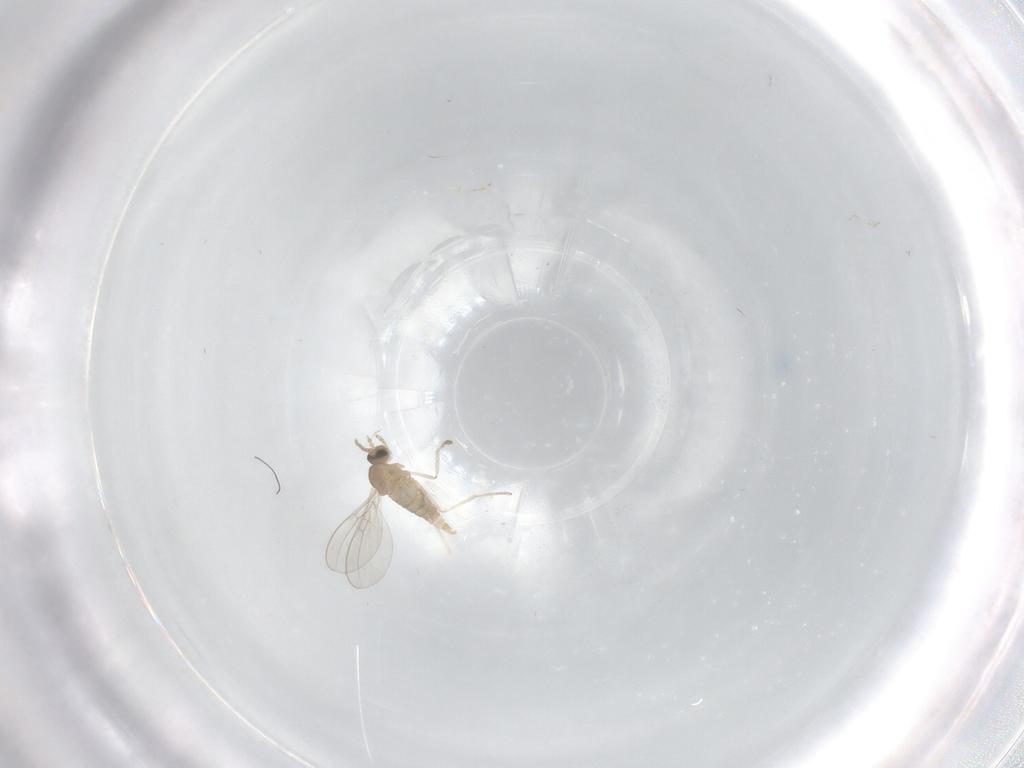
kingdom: Animalia
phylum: Arthropoda
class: Insecta
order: Diptera
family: Cecidomyiidae
